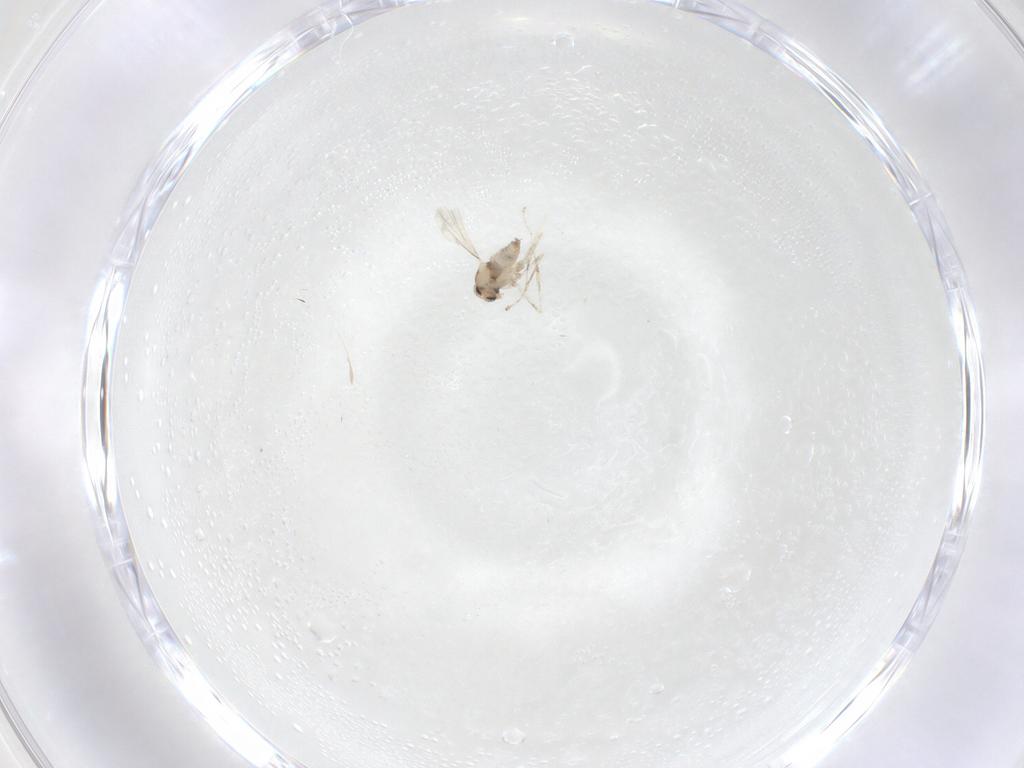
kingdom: Animalia
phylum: Arthropoda
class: Insecta
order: Diptera
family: Cecidomyiidae
